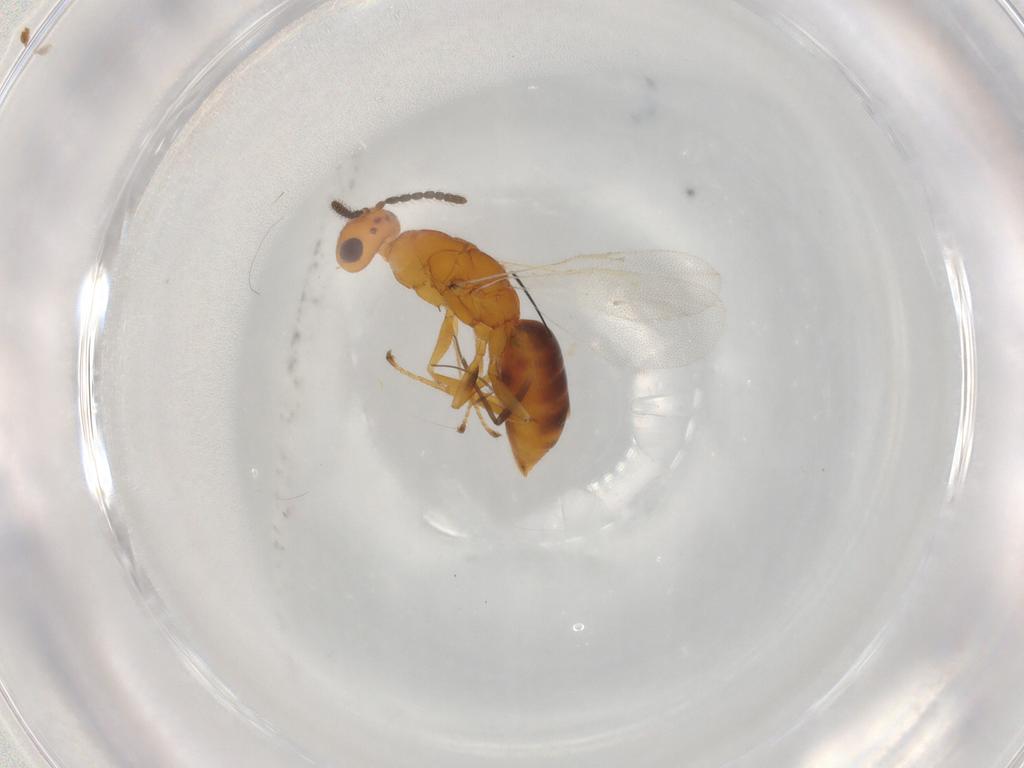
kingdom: Animalia
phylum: Arthropoda
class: Insecta
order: Hymenoptera
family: Eurytomidae
